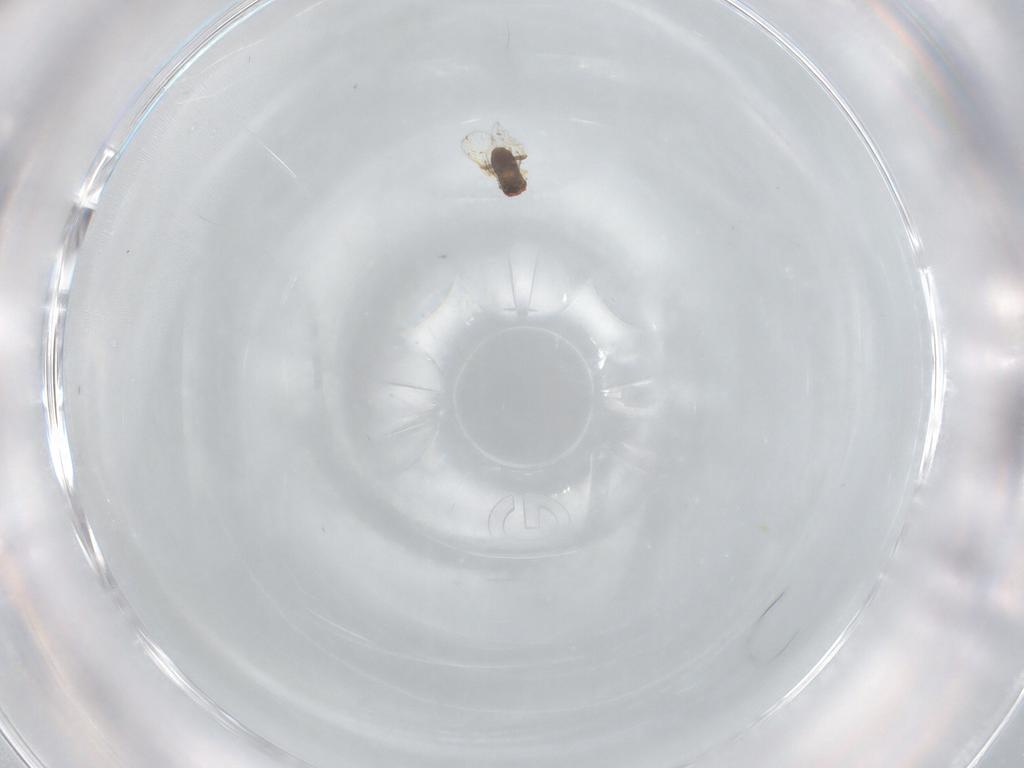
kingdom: Animalia
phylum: Arthropoda
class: Insecta
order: Hymenoptera
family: Trichogrammatidae
